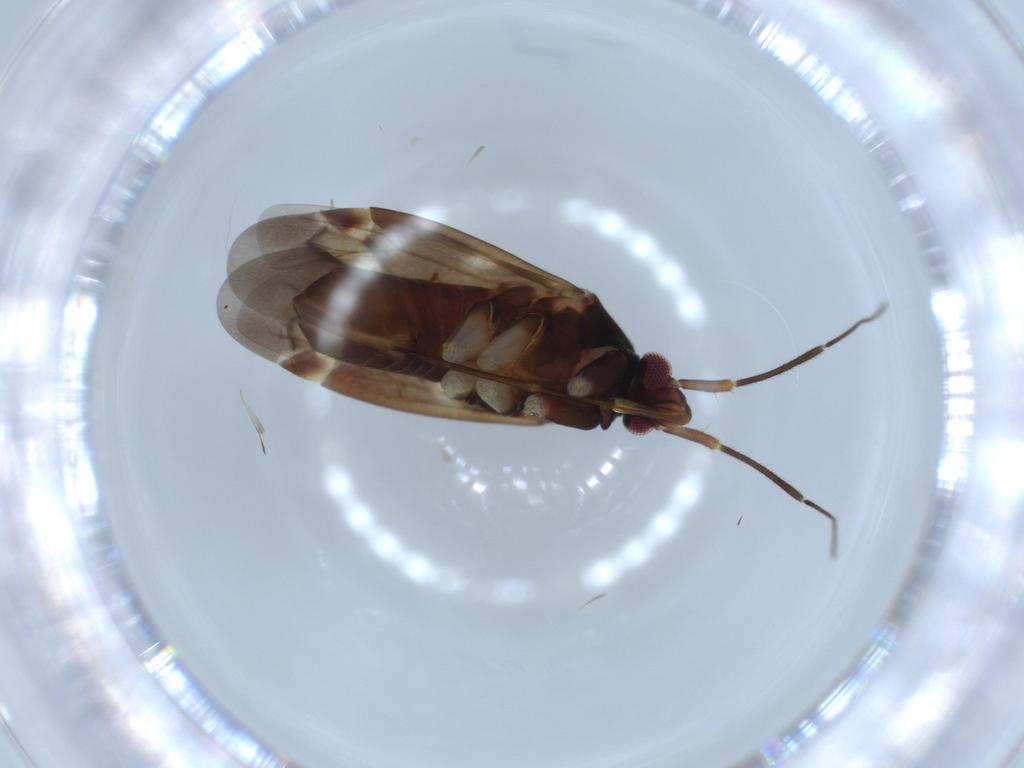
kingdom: Animalia
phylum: Arthropoda
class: Insecta
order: Hemiptera
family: Miridae
